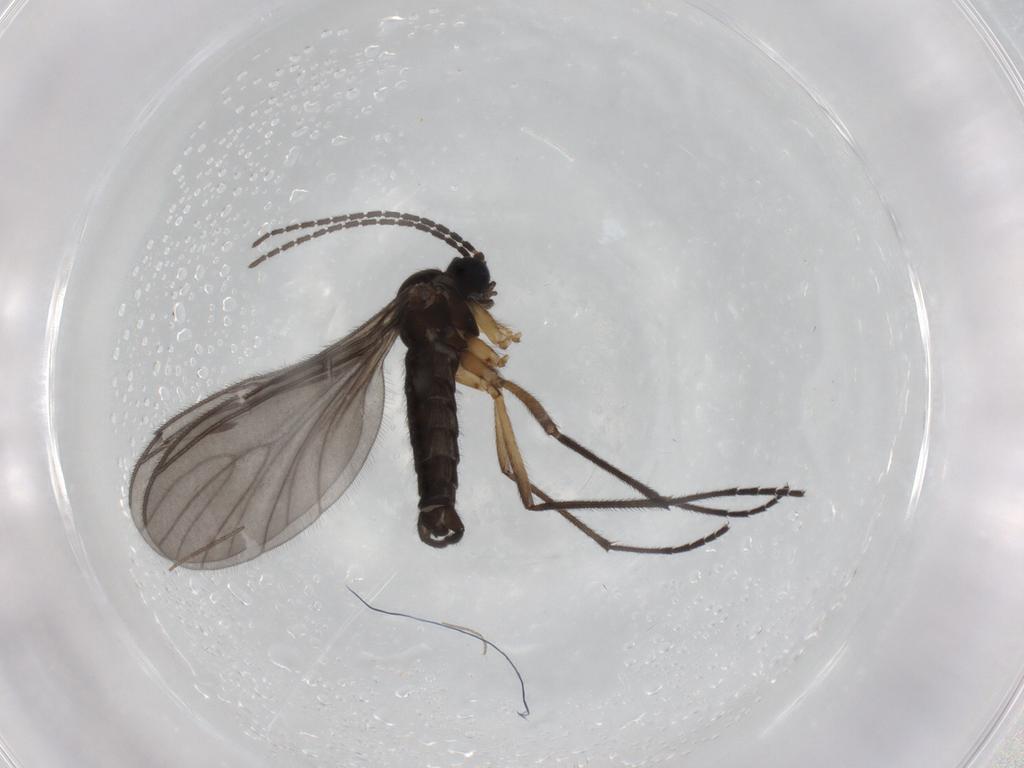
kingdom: Animalia
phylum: Arthropoda
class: Insecta
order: Diptera
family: Sciaridae
